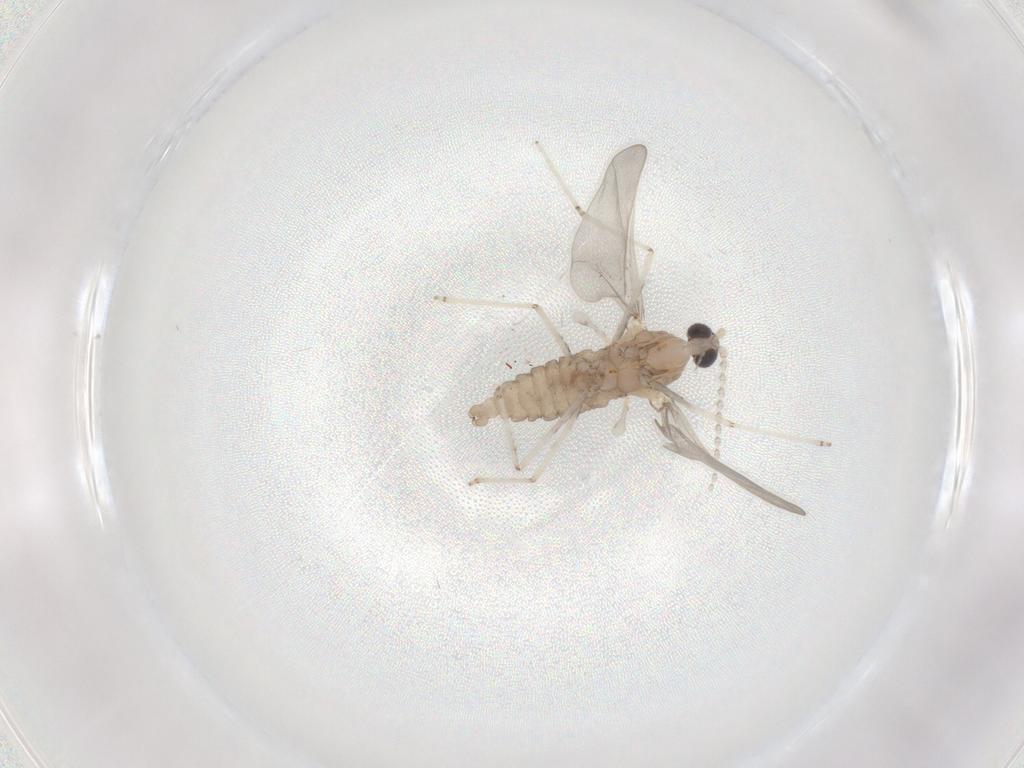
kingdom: Animalia
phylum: Arthropoda
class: Insecta
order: Diptera
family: Cecidomyiidae
